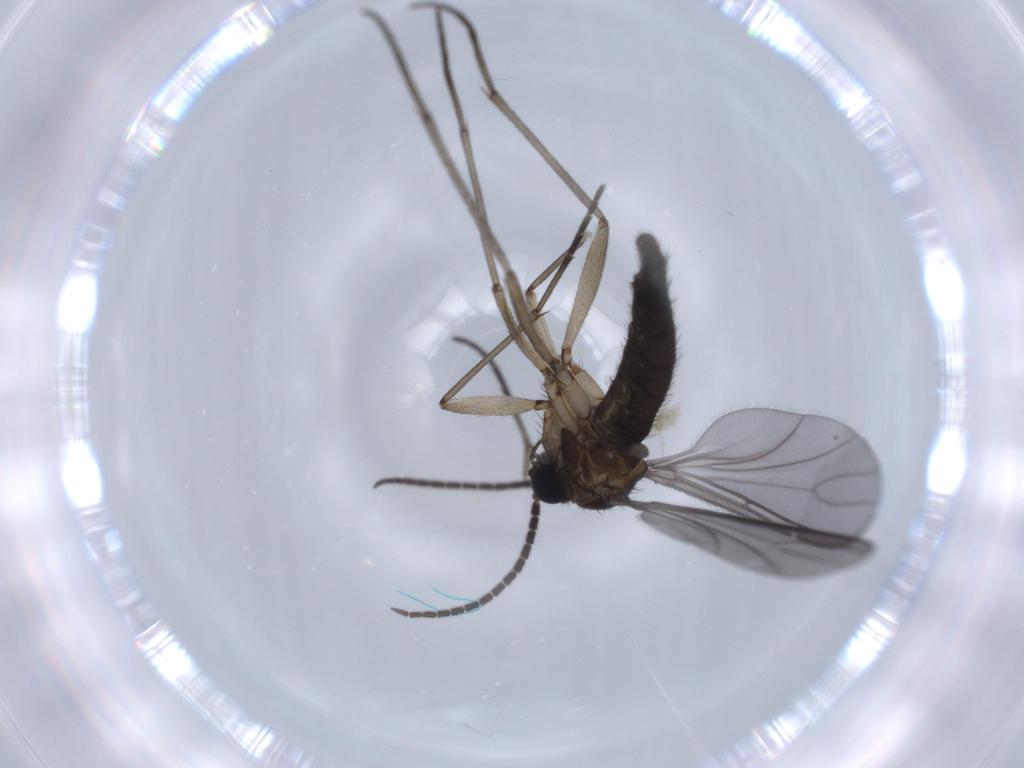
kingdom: Animalia
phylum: Arthropoda
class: Insecta
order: Diptera
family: Sciaridae
